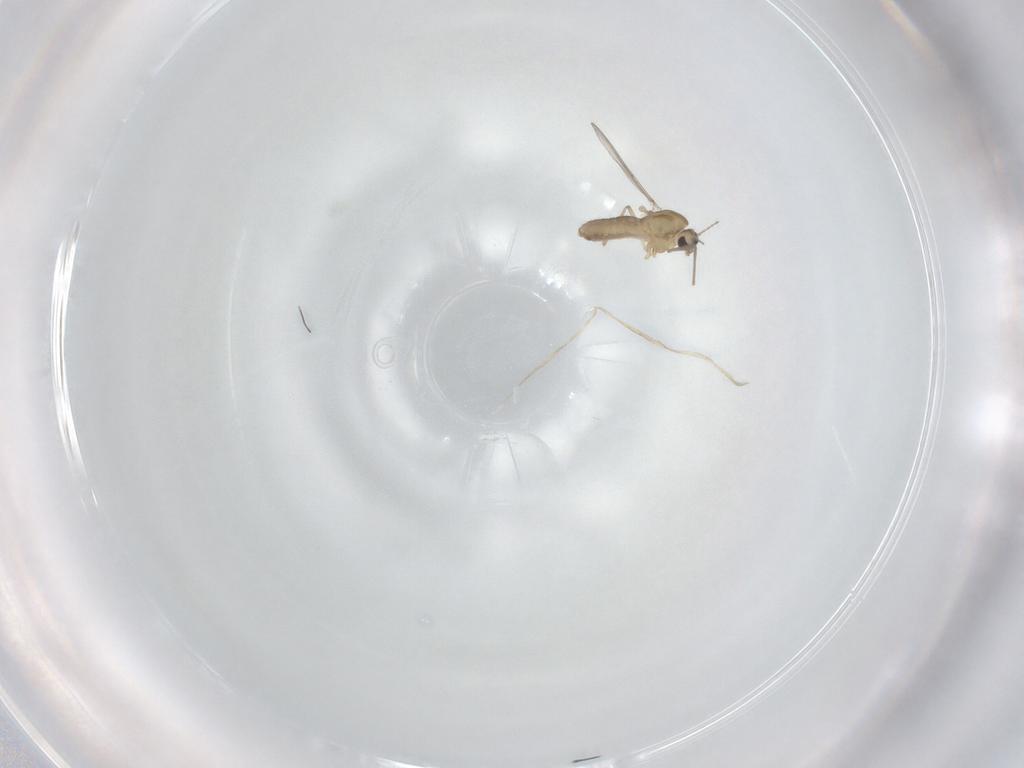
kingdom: Animalia
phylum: Arthropoda
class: Insecta
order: Diptera
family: Chironomidae
